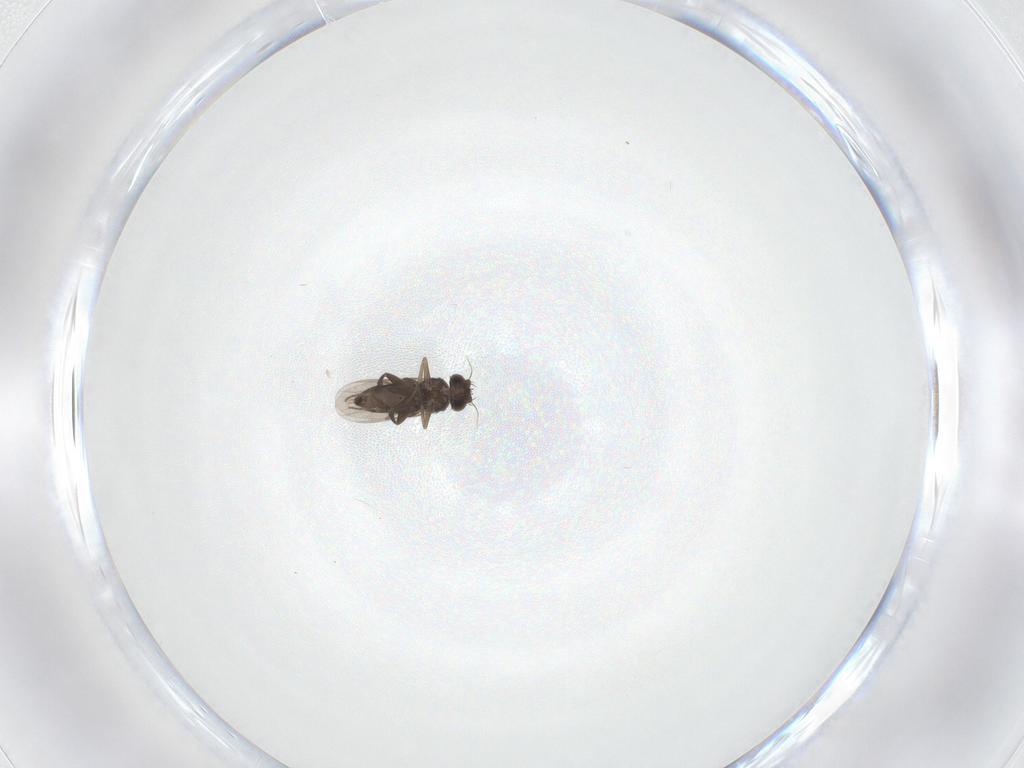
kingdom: Animalia
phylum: Arthropoda
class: Insecta
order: Diptera
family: Phoridae
